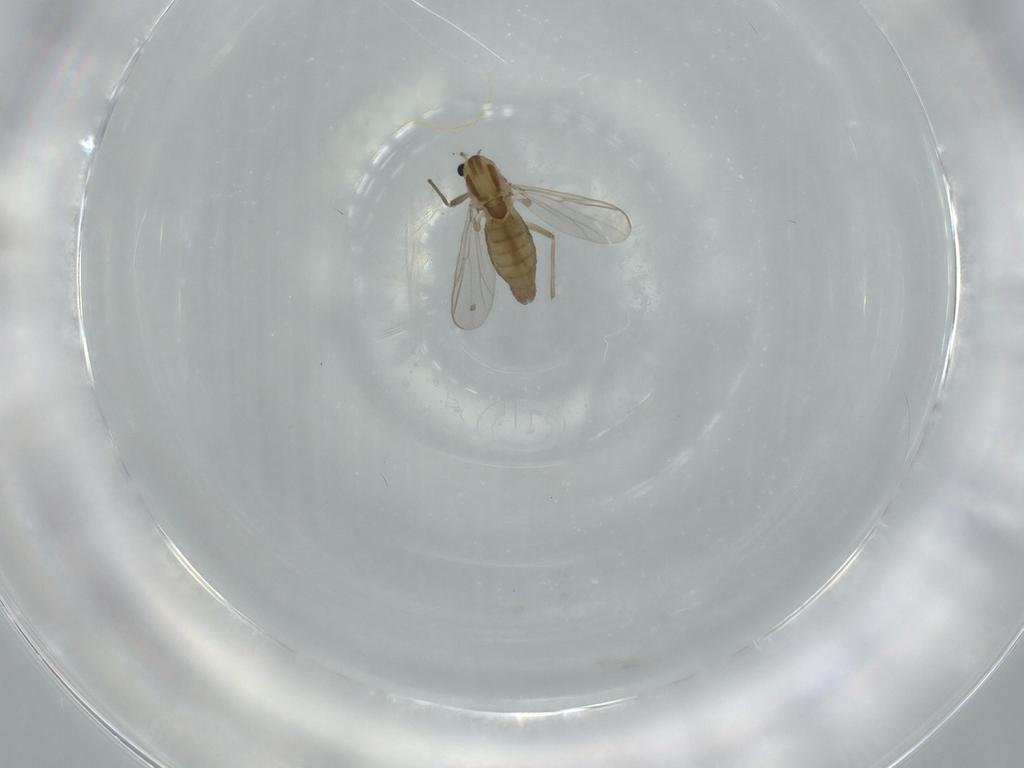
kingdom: Animalia
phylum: Arthropoda
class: Insecta
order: Diptera
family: Chironomidae
